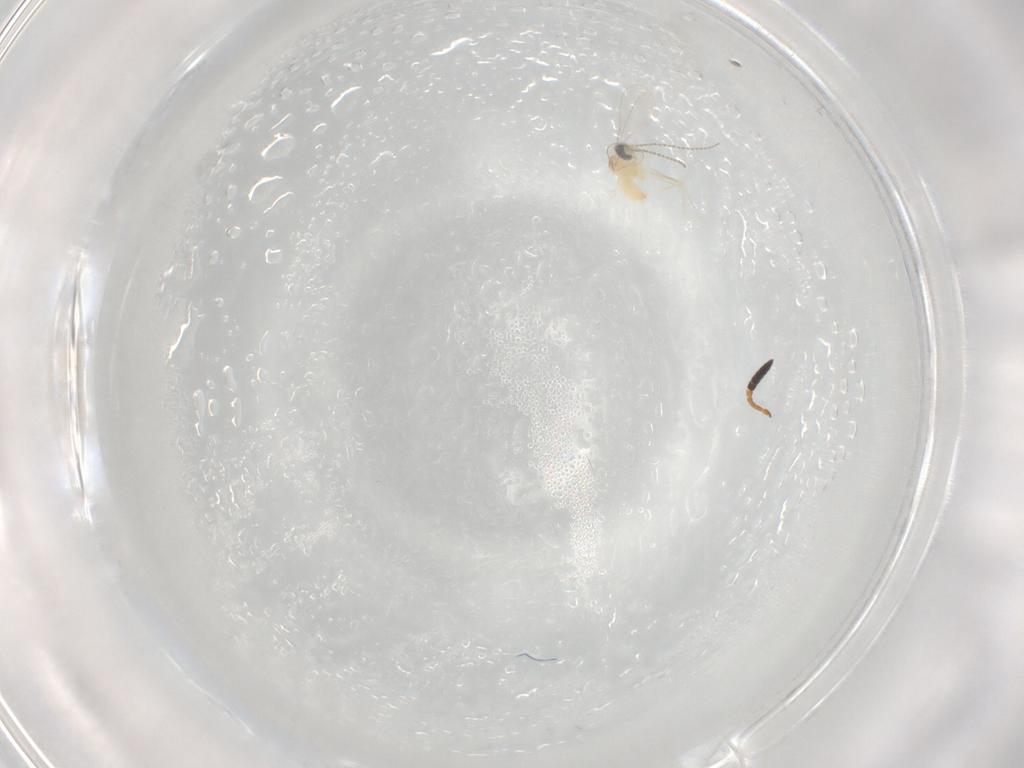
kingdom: Animalia
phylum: Arthropoda
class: Insecta
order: Diptera
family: Cecidomyiidae
